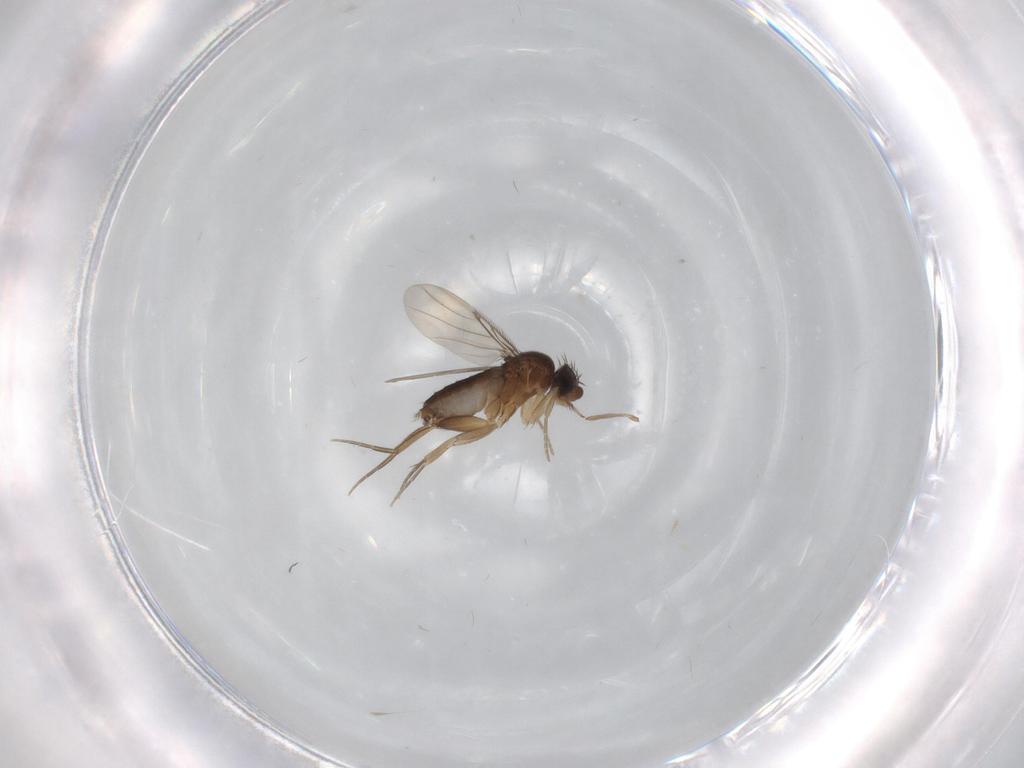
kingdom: Animalia
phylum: Arthropoda
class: Insecta
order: Diptera
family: Phoridae
